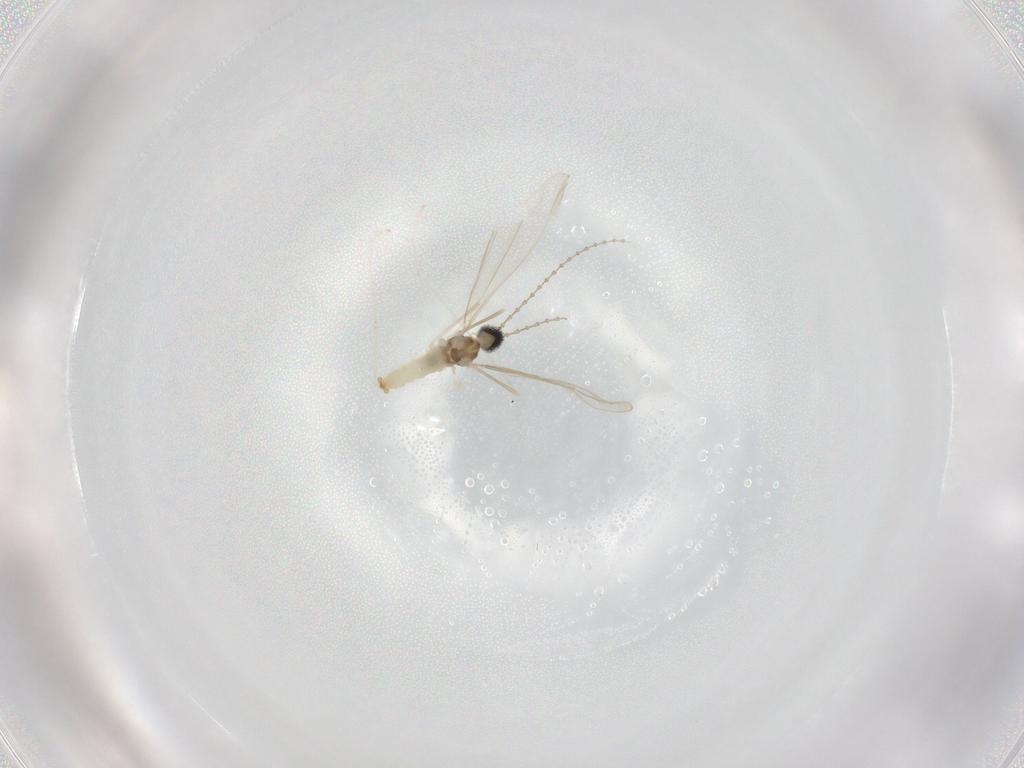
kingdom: Animalia
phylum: Arthropoda
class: Insecta
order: Diptera
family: Cecidomyiidae
